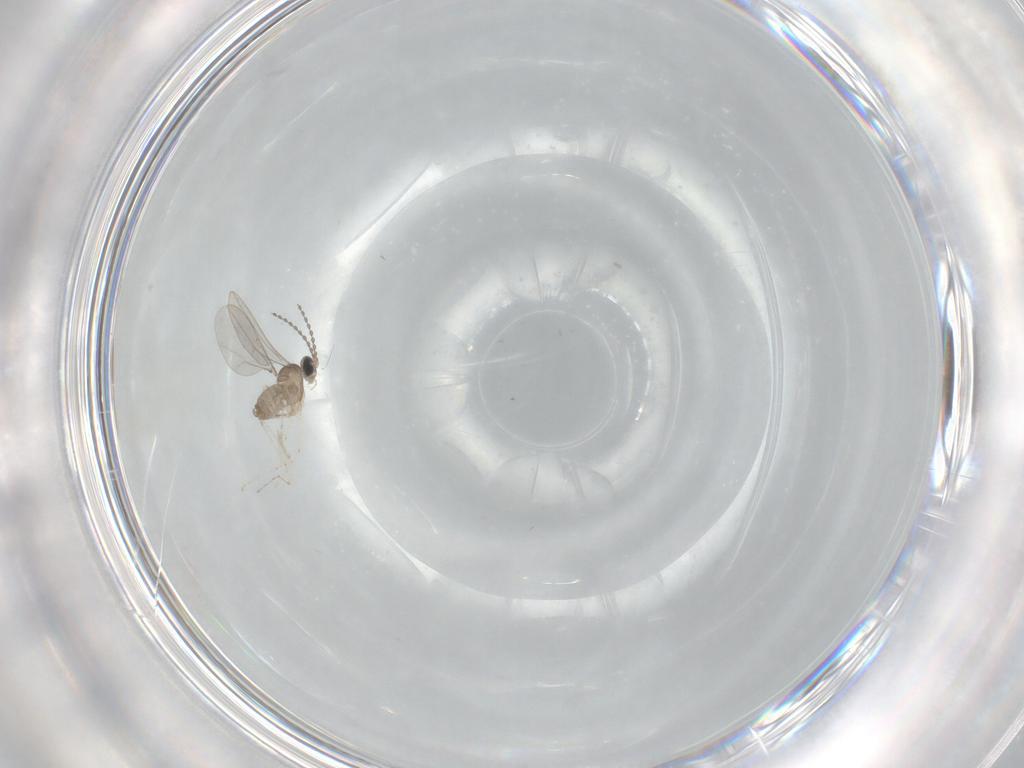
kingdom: Animalia
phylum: Arthropoda
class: Insecta
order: Diptera
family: Cecidomyiidae
